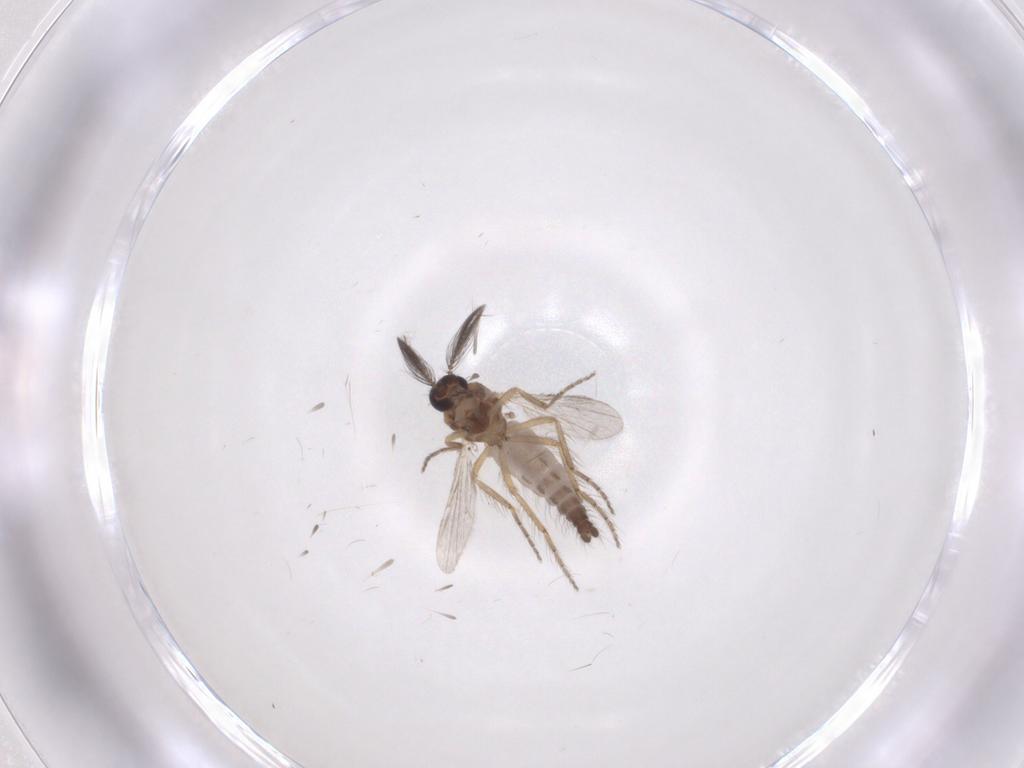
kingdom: Animalia
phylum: Arthropoda
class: Insecta
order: Diptera
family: Ceratopogonidae
